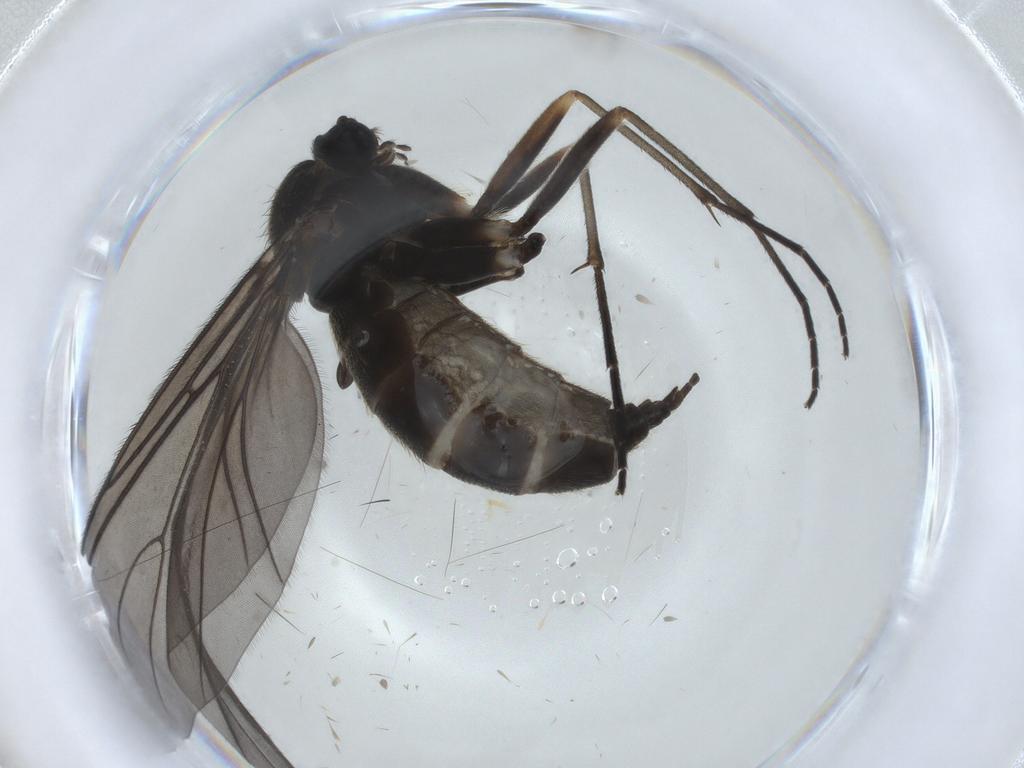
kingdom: Animalia
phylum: Arthropoda
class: Insecta
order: Diptera
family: Sciaridae
